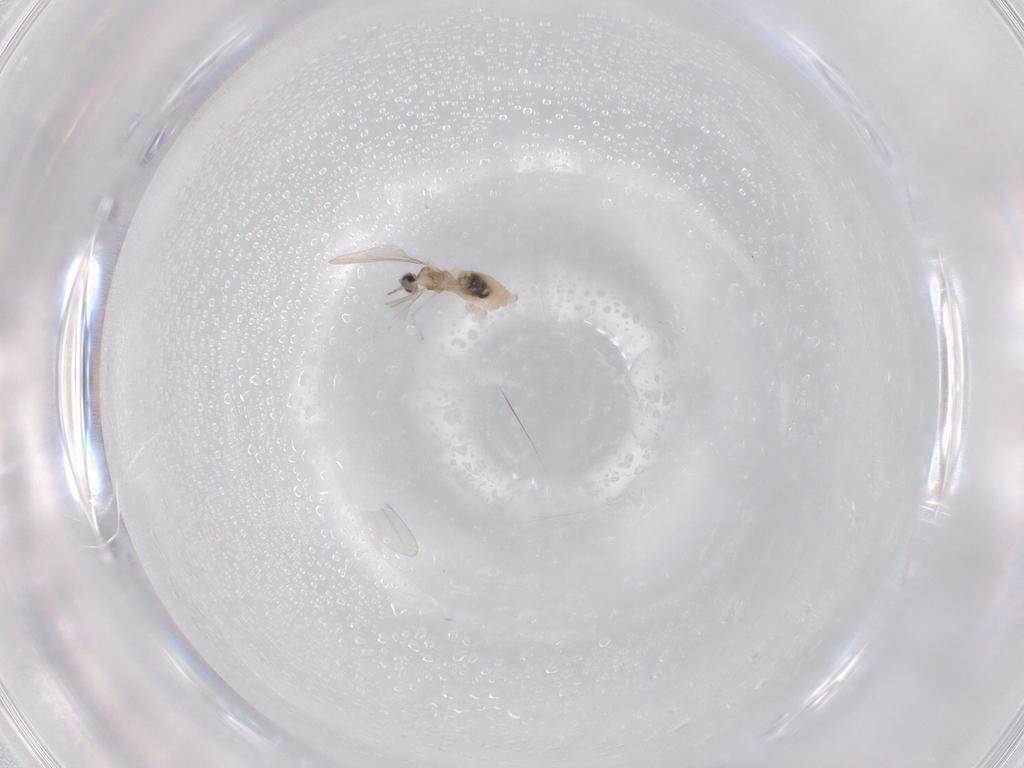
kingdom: Animalia
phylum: Arthropoda
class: Insecta
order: Diptera
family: Cecidomyiidae
